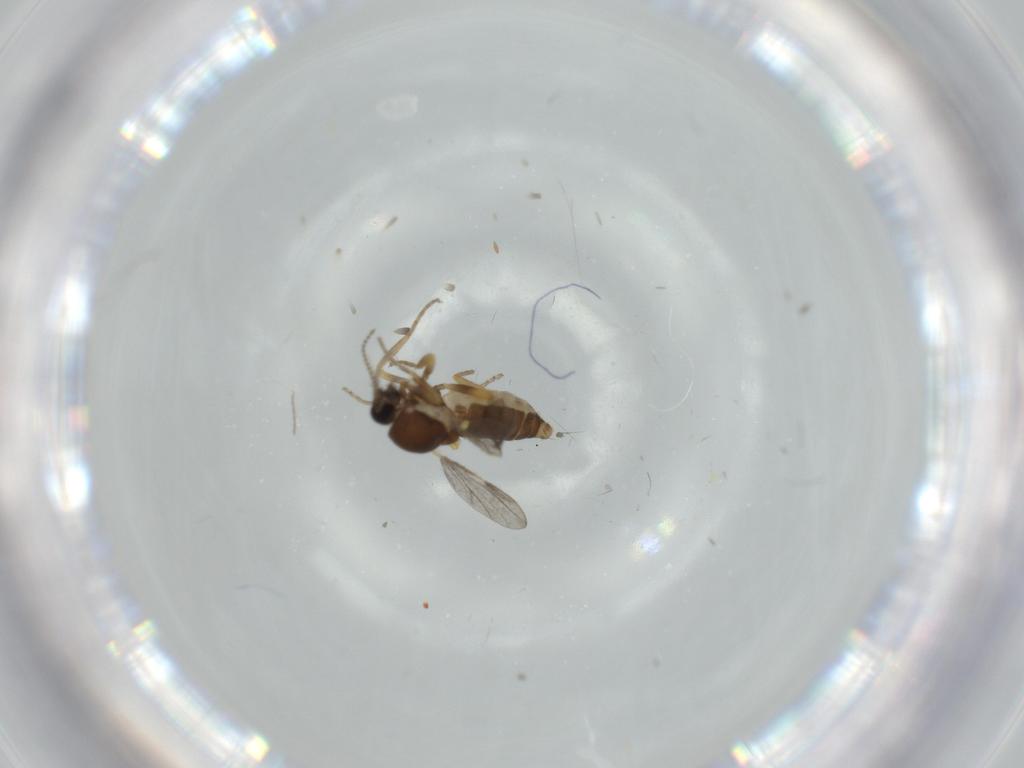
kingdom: Animalia
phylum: Arthropoda
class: Insecta
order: Diptera
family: Ceratopogonidae
